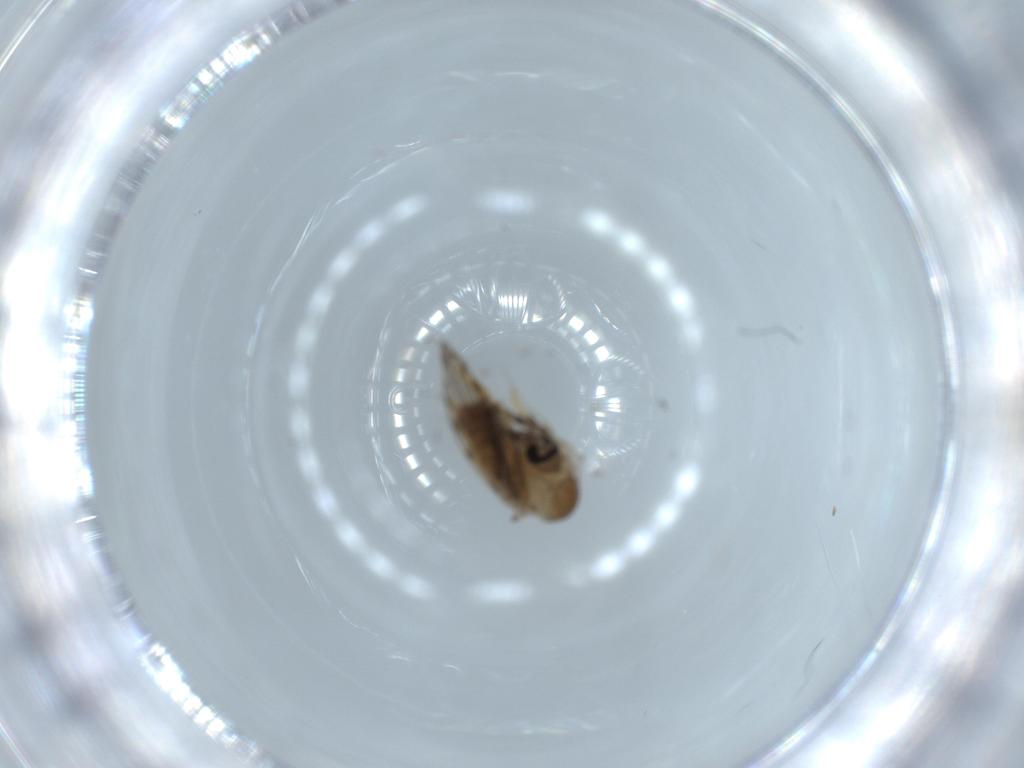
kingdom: Animalia
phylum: Arthropoda
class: Insecta
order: Diptera
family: Psychodidae
